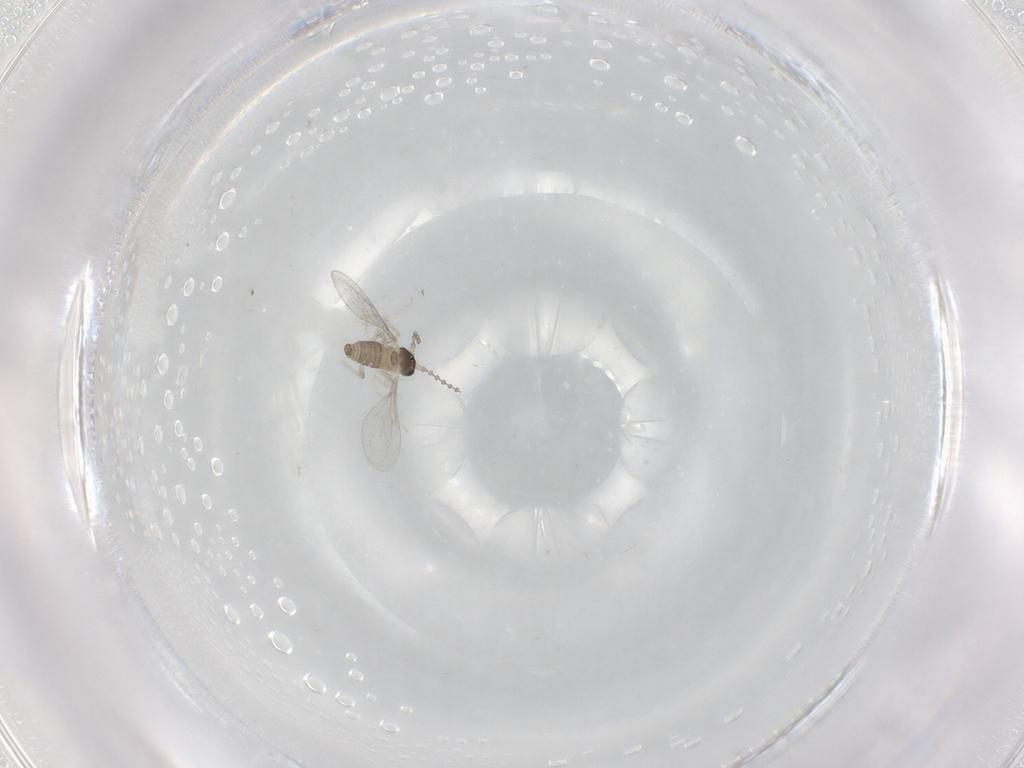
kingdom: Animalia
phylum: Arthropoda
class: Insecta
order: Diptera
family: Cecidomyiidae
